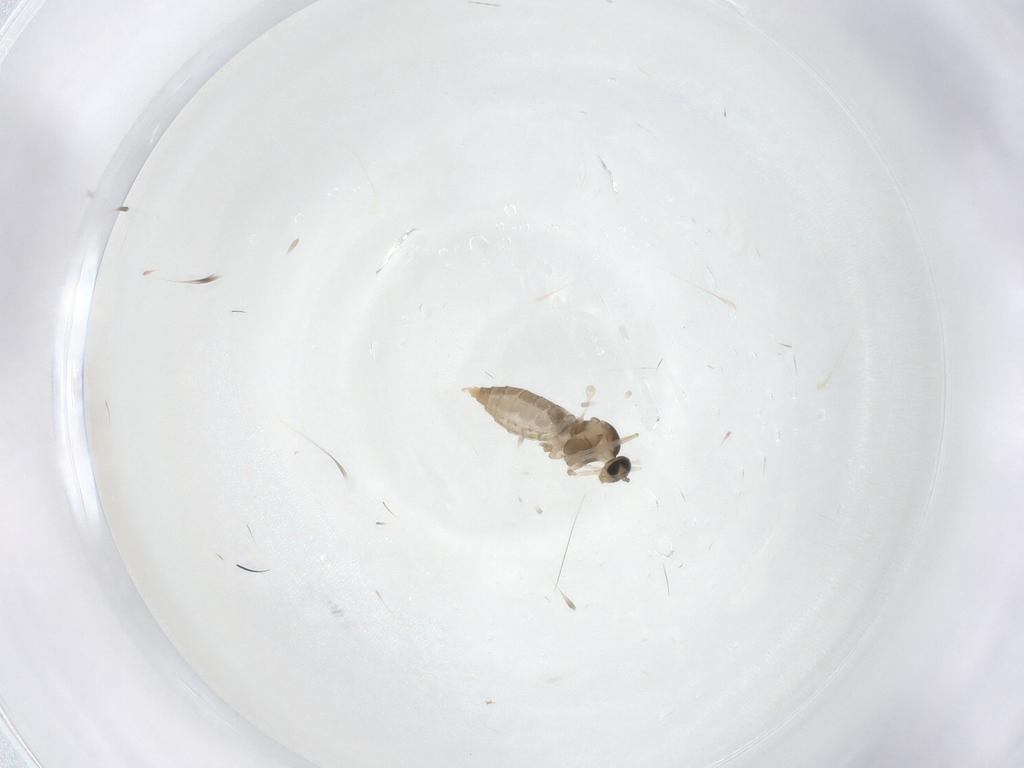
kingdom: Animalia
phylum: Arthropoda
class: Insecta
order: Diptera
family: Cecidomyiidae
